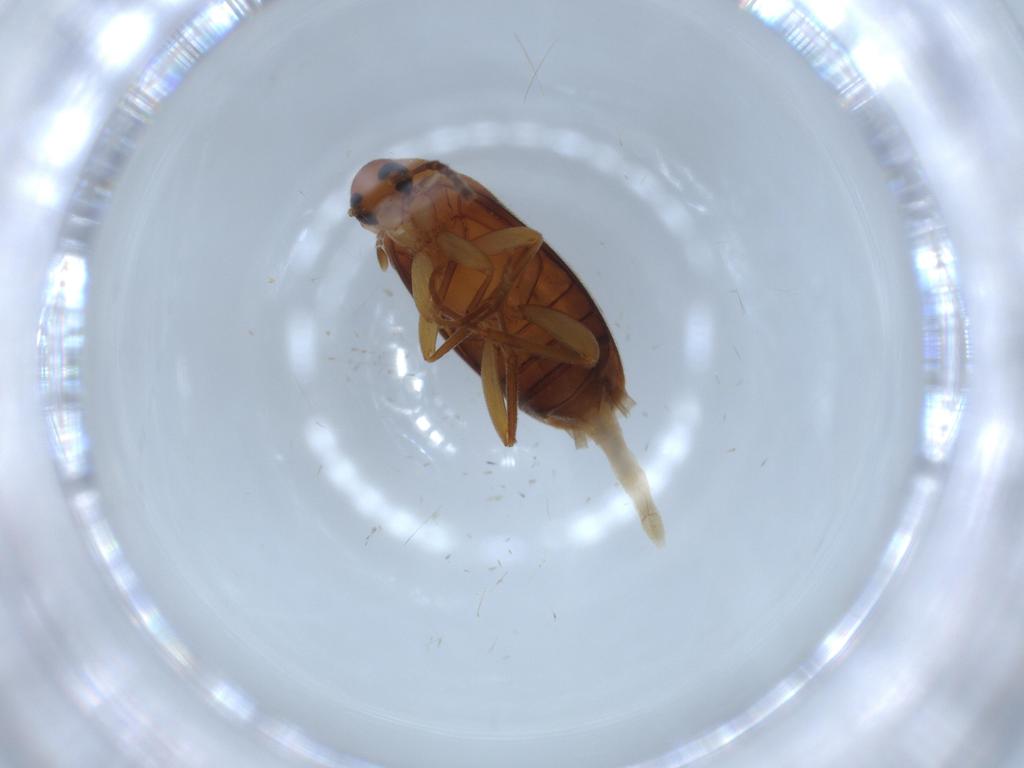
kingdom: Animalia
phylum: Arthropoda
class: Insecta
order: Coleoptera
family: Scraptiidae
